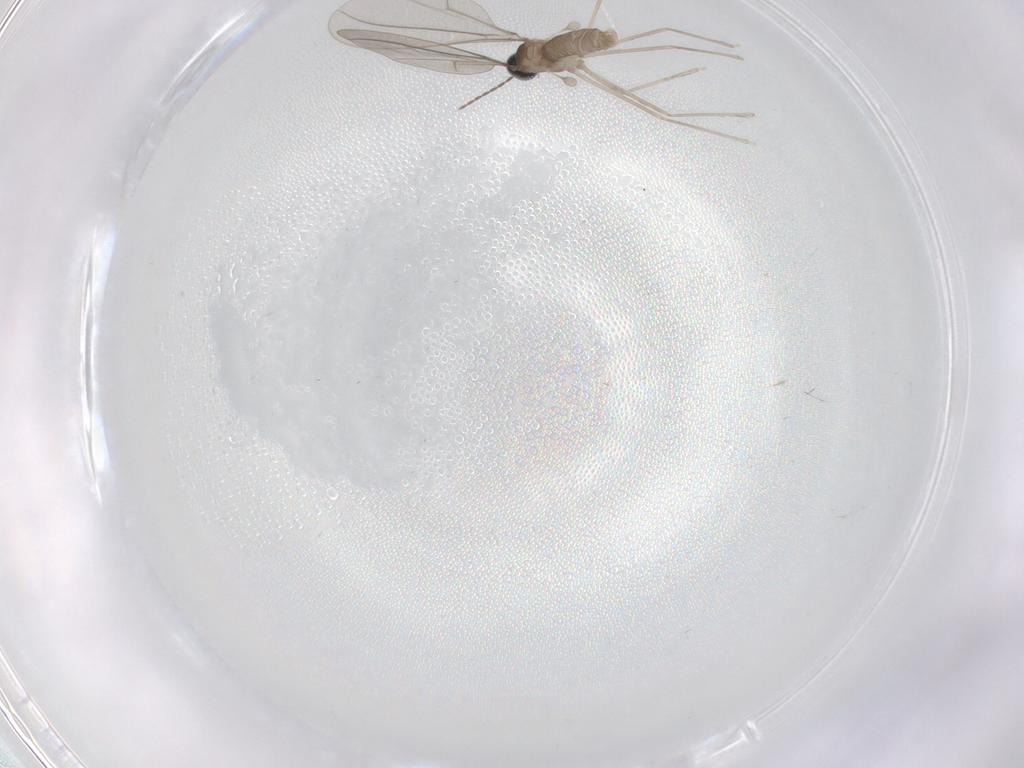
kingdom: Animalia
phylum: Arthropoda
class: Insecta
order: Diptera
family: Cecidomyiidae
